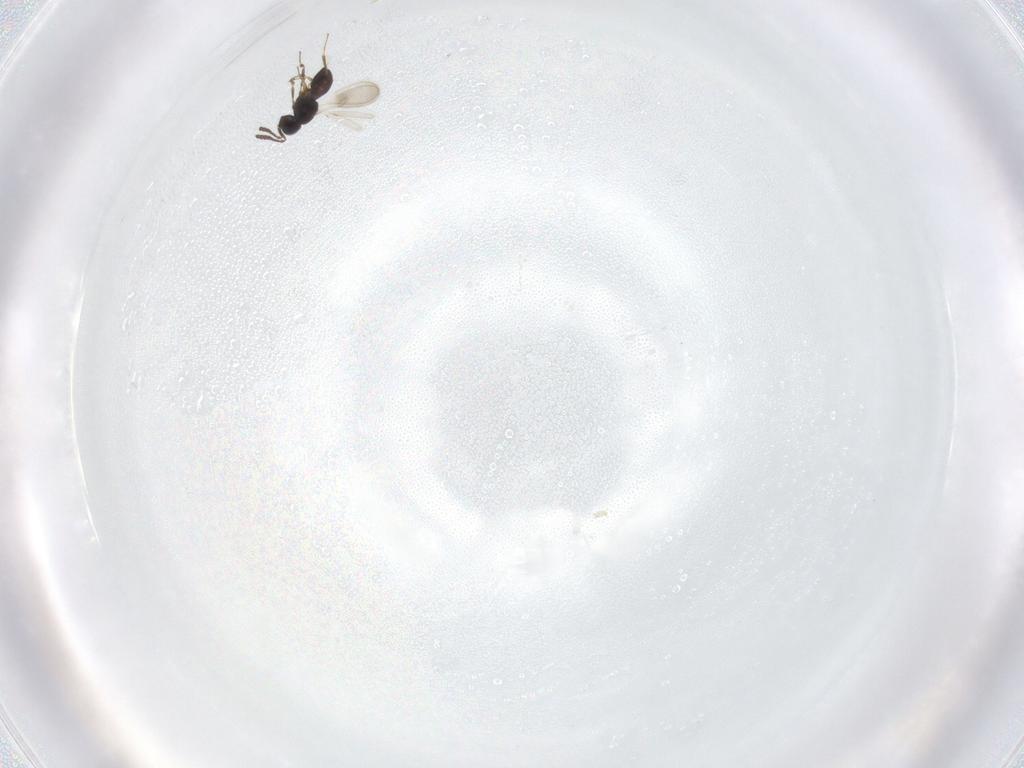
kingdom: Animalia
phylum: Arthropoda
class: Insecta
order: Hymenoptera
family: Scelionidae
